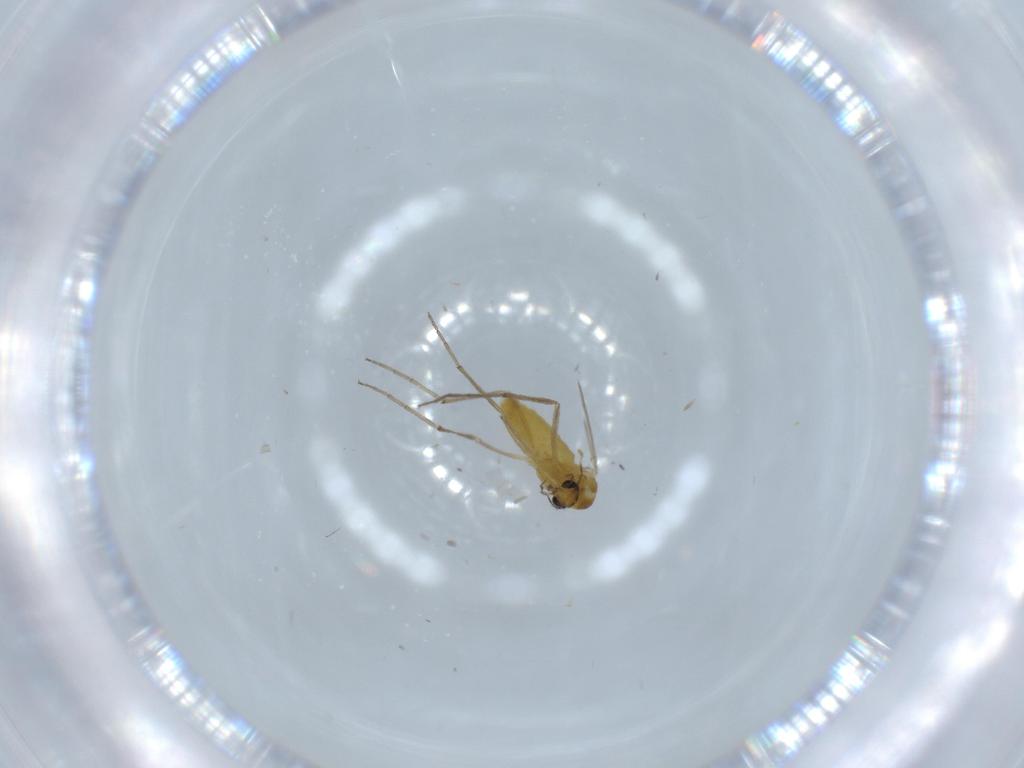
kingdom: Animalia
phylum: Arthropoda
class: Insecta
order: Diptera
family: Chironomidae
